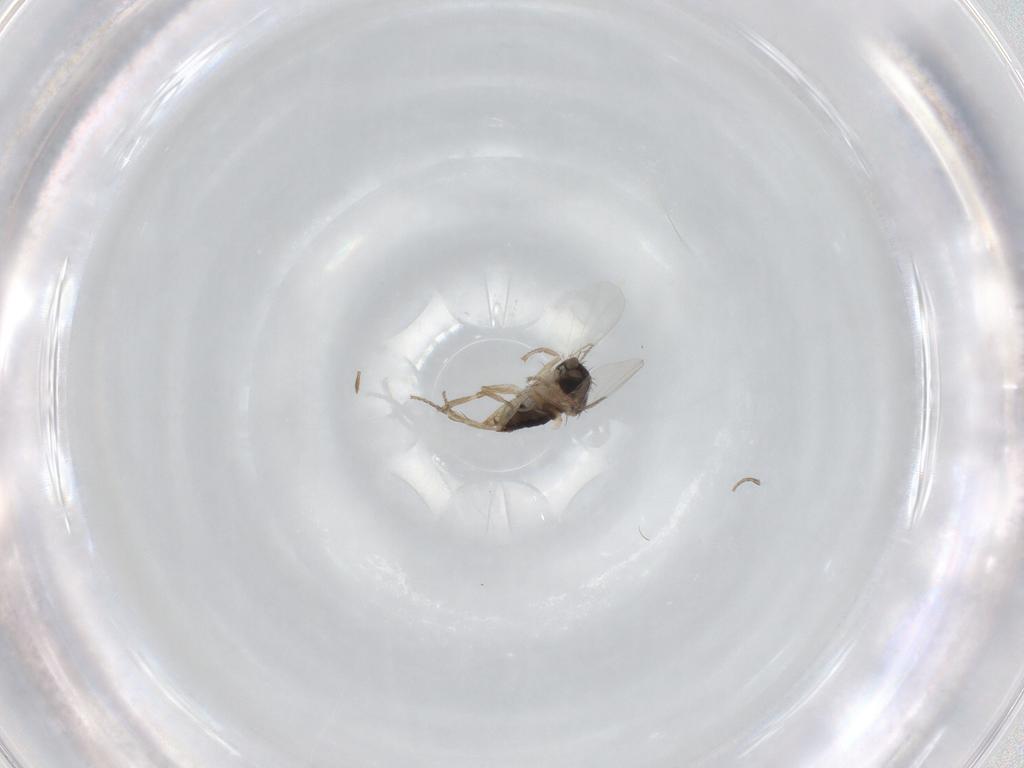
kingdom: Animalia
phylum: Arthropoda
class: Insecta
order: Diptera
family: Phoridae
